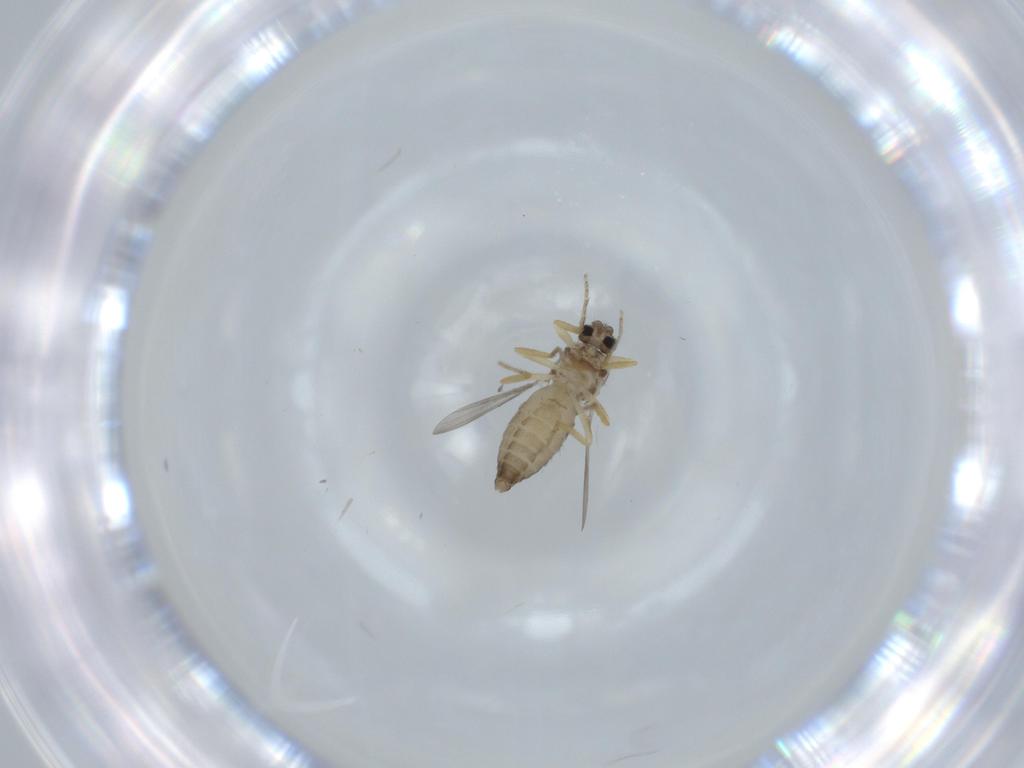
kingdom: Animalia
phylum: Arthropoda
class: Insecta
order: Diptera
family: Ceratopogonidae
